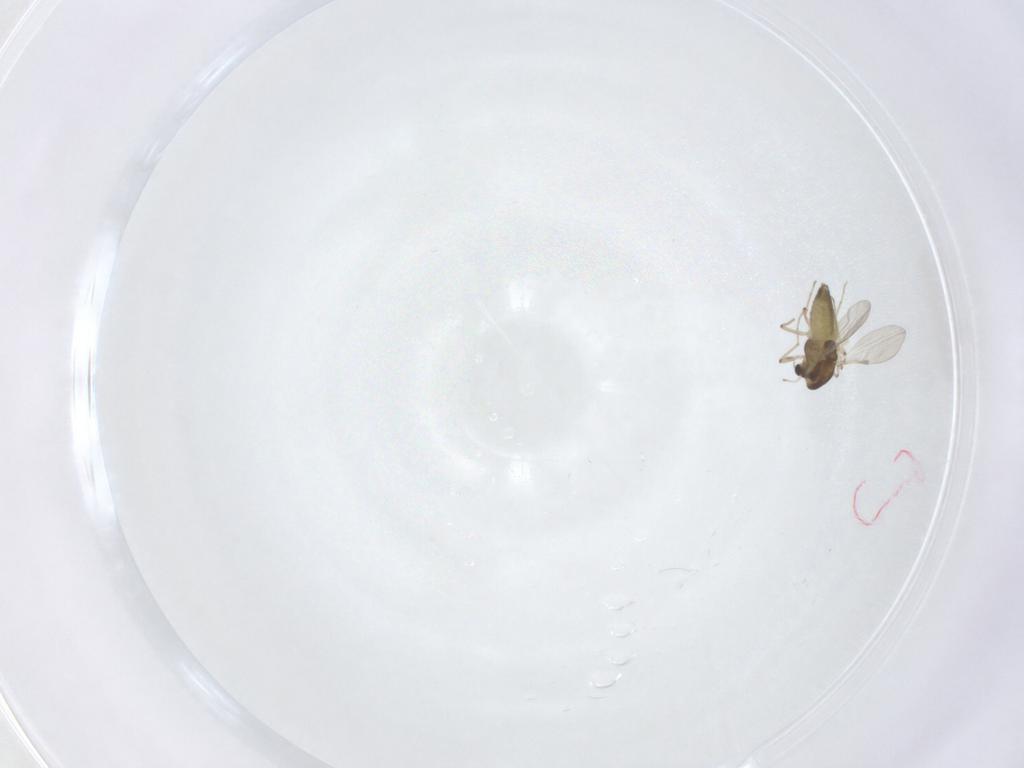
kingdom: Animalia
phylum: Arthropoda
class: Insecta
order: Diptera
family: Chironomidae
